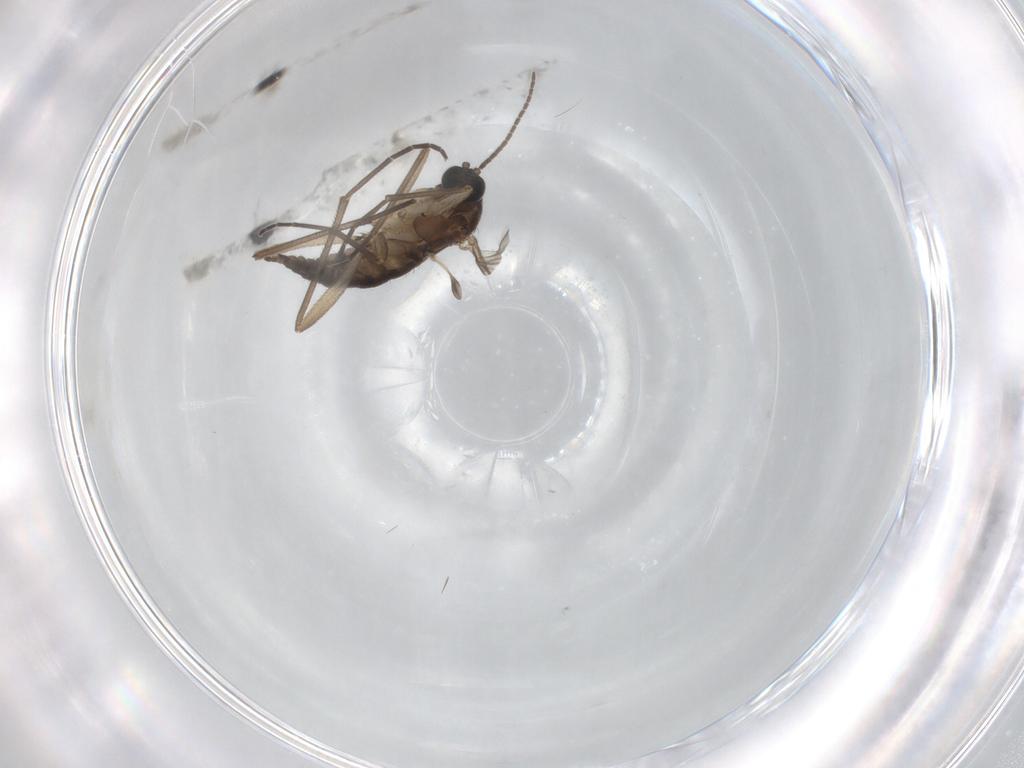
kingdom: Animalia
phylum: Arthropoda
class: Insecta
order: Diptera
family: Sciaridae
